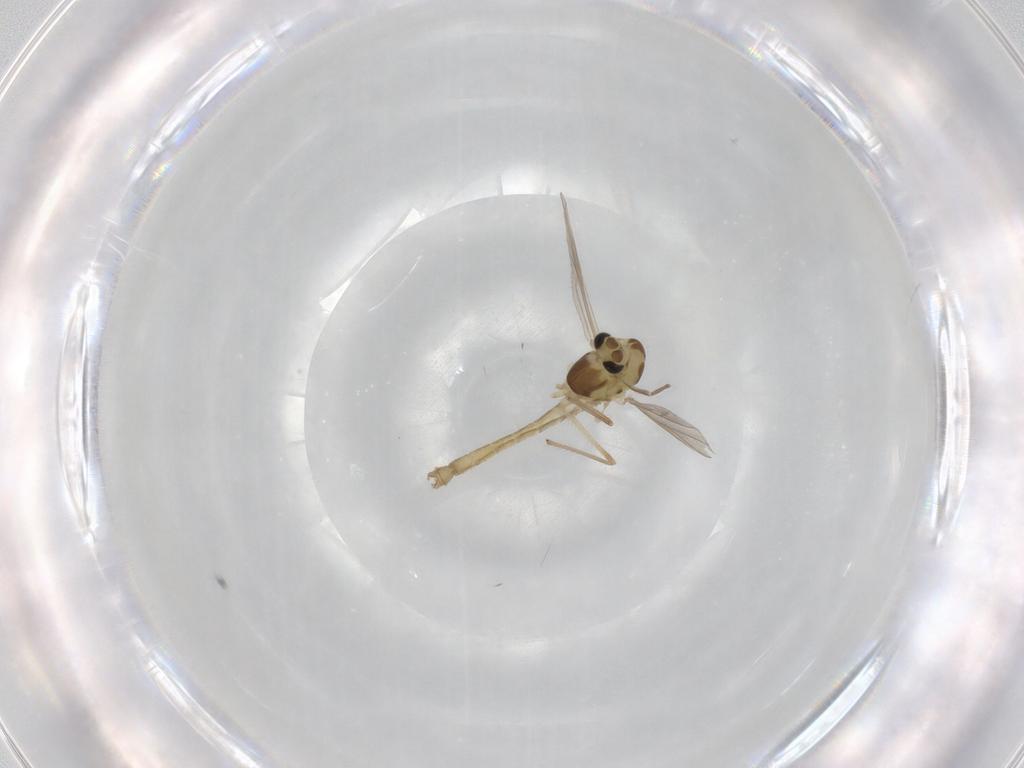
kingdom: Animalia
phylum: Arthropoda
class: Insecta
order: Diptera
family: Chironomidae
